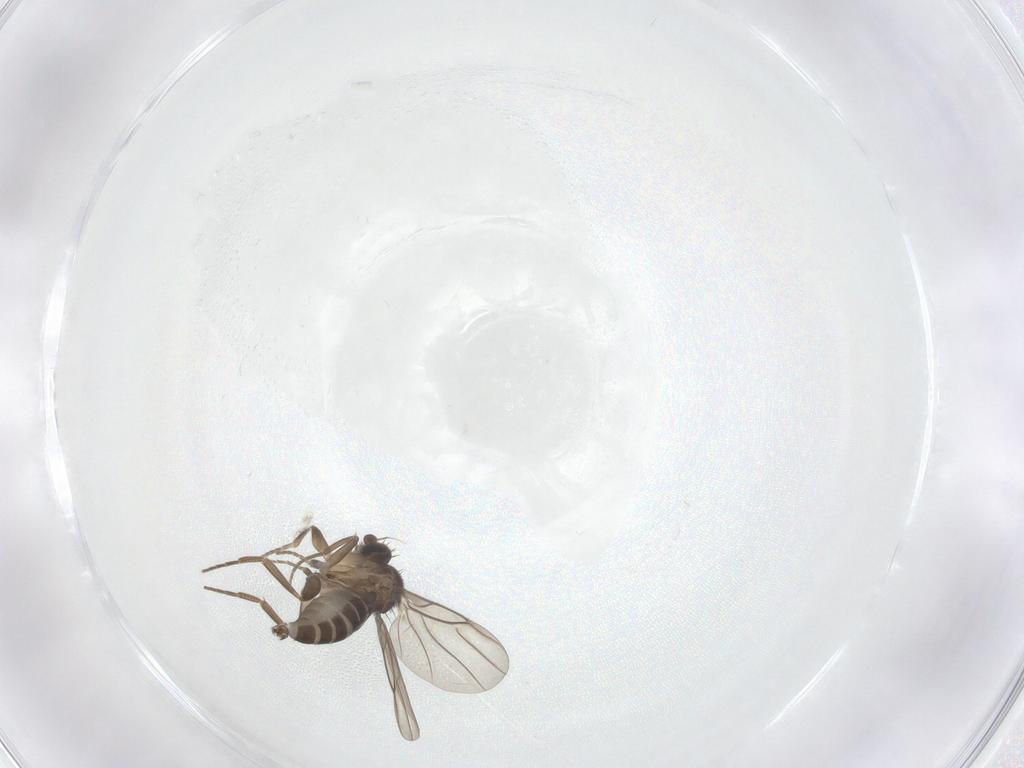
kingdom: Animalia
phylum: Arthropoda
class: Insecta
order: Diptera
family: Phoridae
